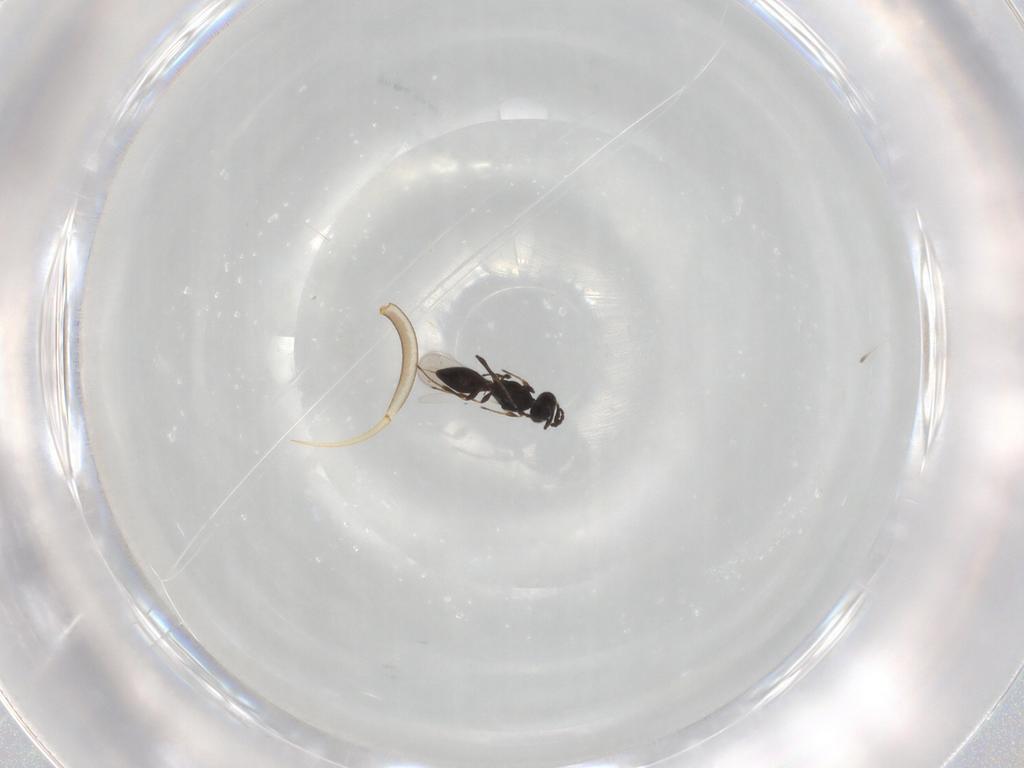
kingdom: Animalia
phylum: Arthropoda
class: Insecta
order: Hymenoptera
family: Platygastridae
